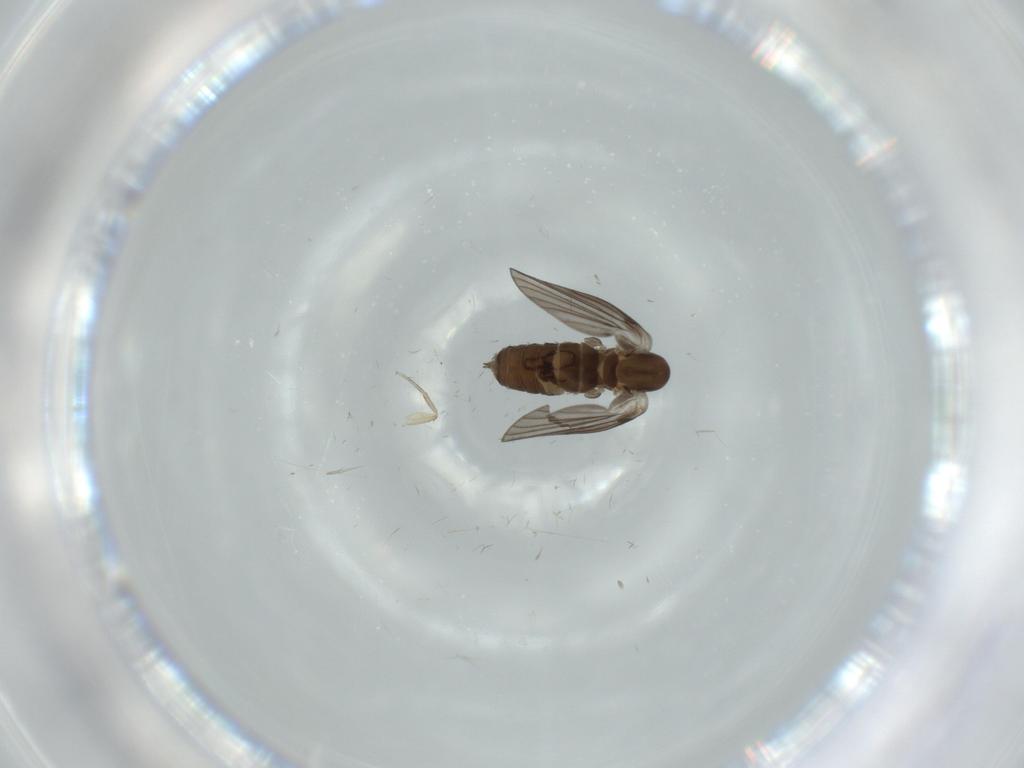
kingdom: Animalia
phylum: Arthropoda
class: Insecta
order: Diptera
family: Psychodidae
